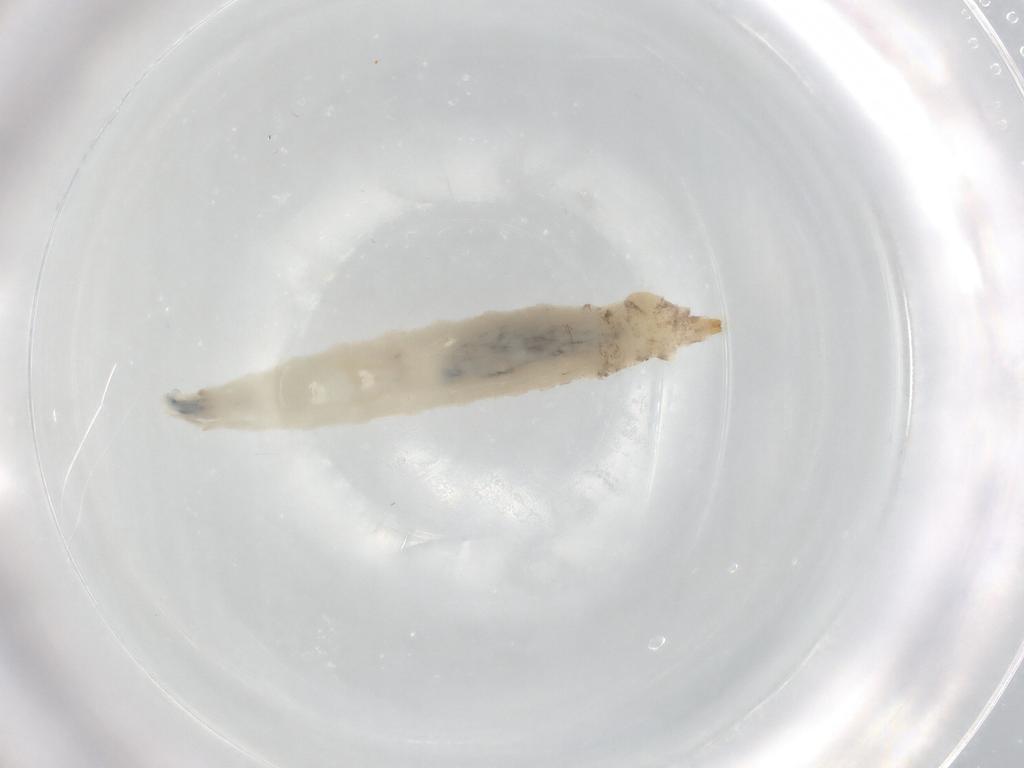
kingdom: Animalia
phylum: Arthropoda
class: Insecta
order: Diptera
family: Drosophilidae
